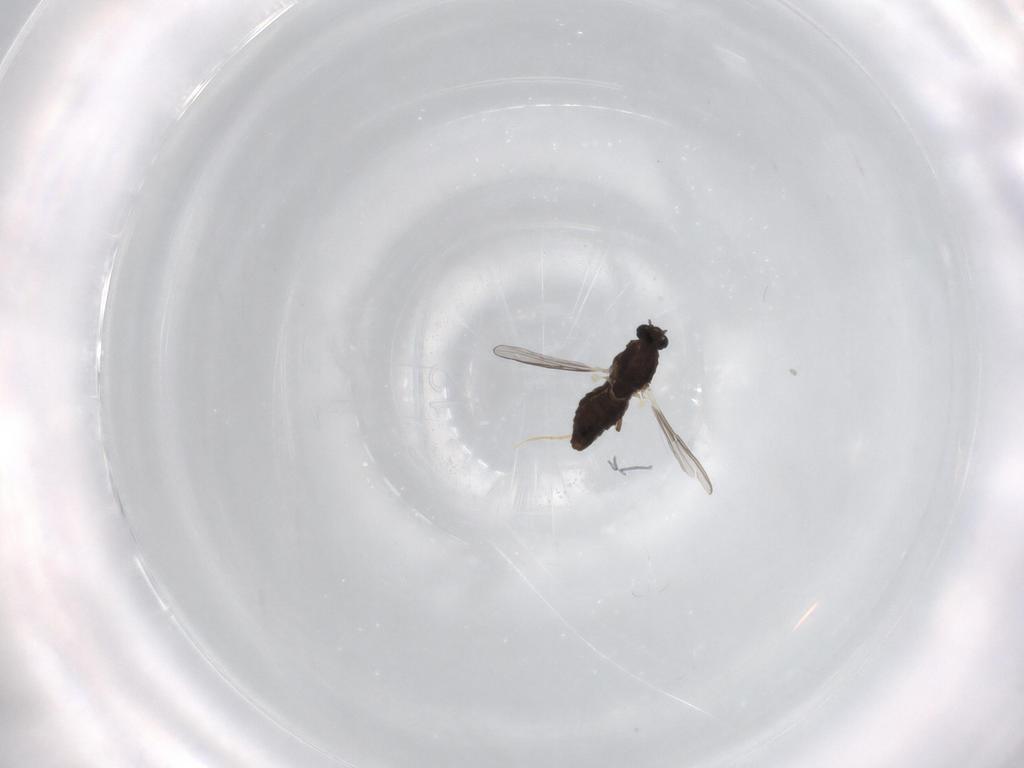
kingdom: Animalia
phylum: Arthropoda
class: Insecta
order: Diptera
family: Chironomidae
